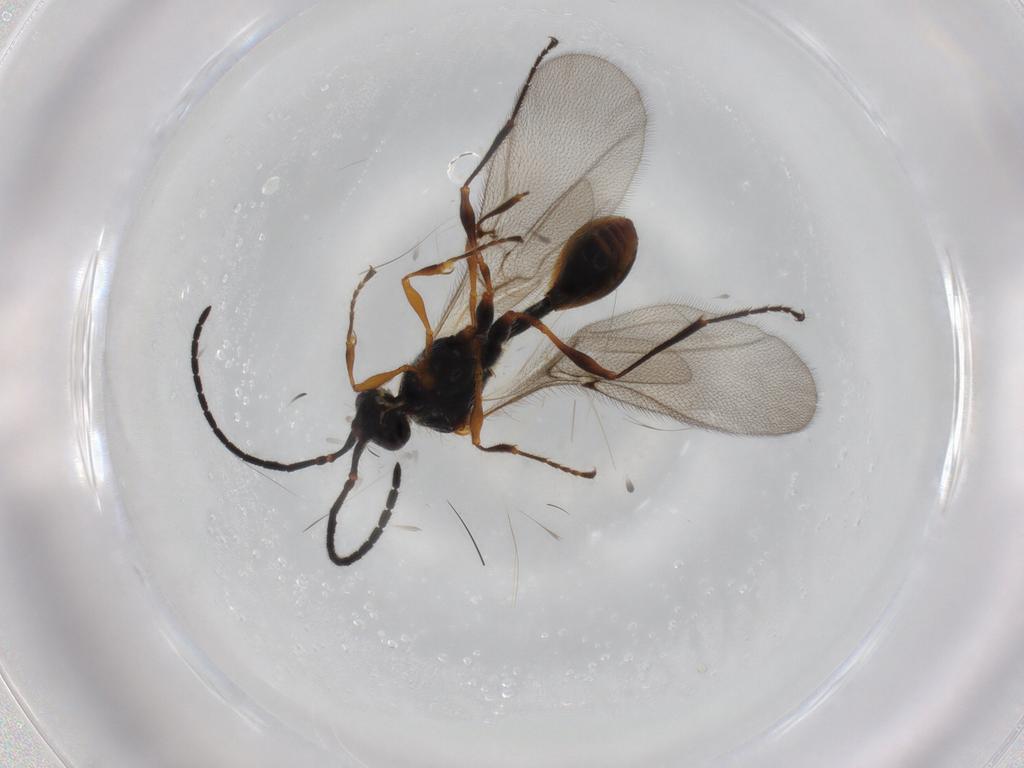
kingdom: Animalia
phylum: Arthropoda
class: Insecta
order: Hymenoptera
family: Diapriidae
